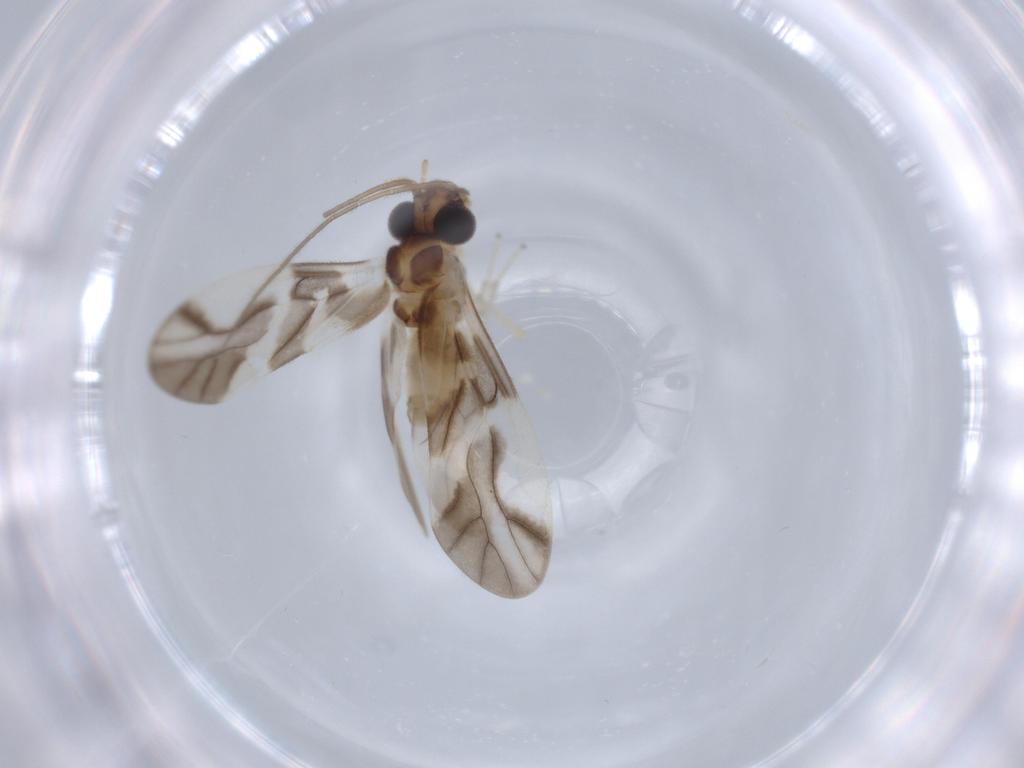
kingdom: Animalia
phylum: Arthropoda
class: Insecta
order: Psocodea
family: Caeciliusidae
